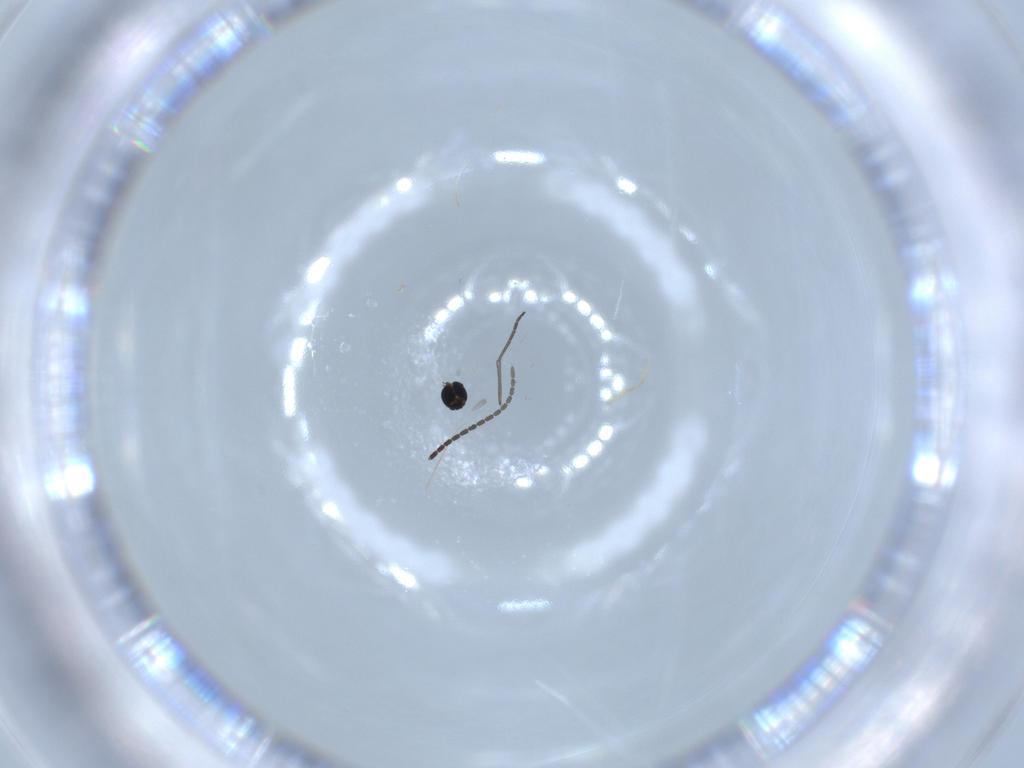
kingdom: Animalia
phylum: Arthropoda
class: Insecta
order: Diptera
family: Sciaridae
